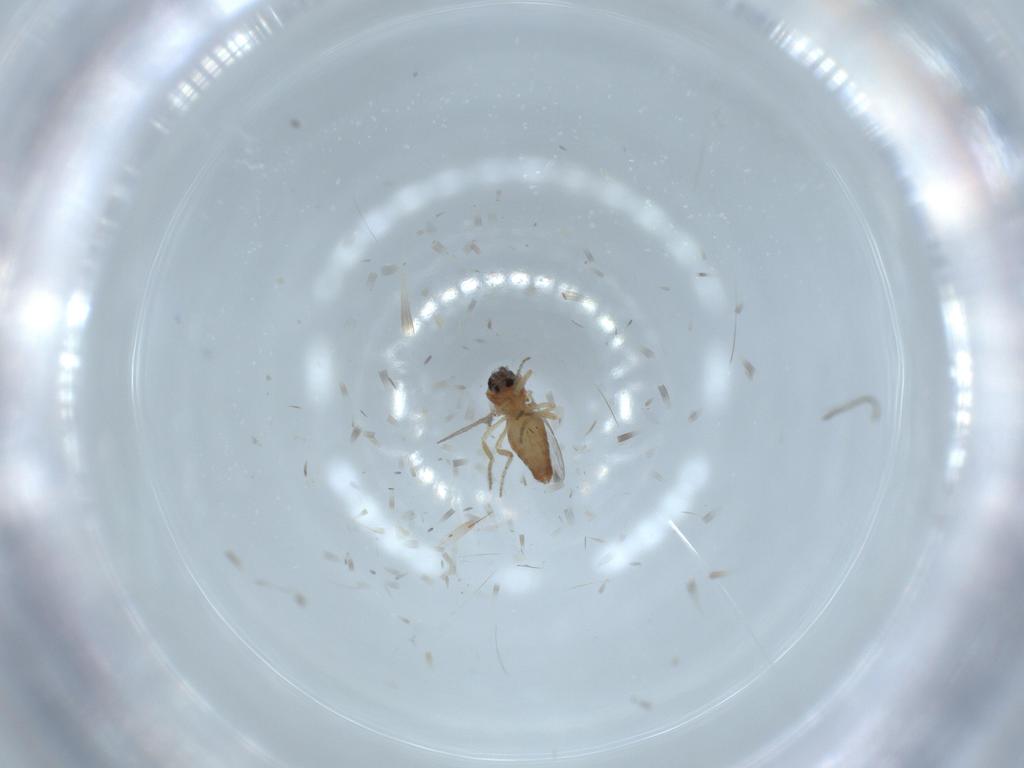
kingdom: Animalia
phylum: Arthropoda
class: Insecta
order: Diptera
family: Ceratopogonidae
